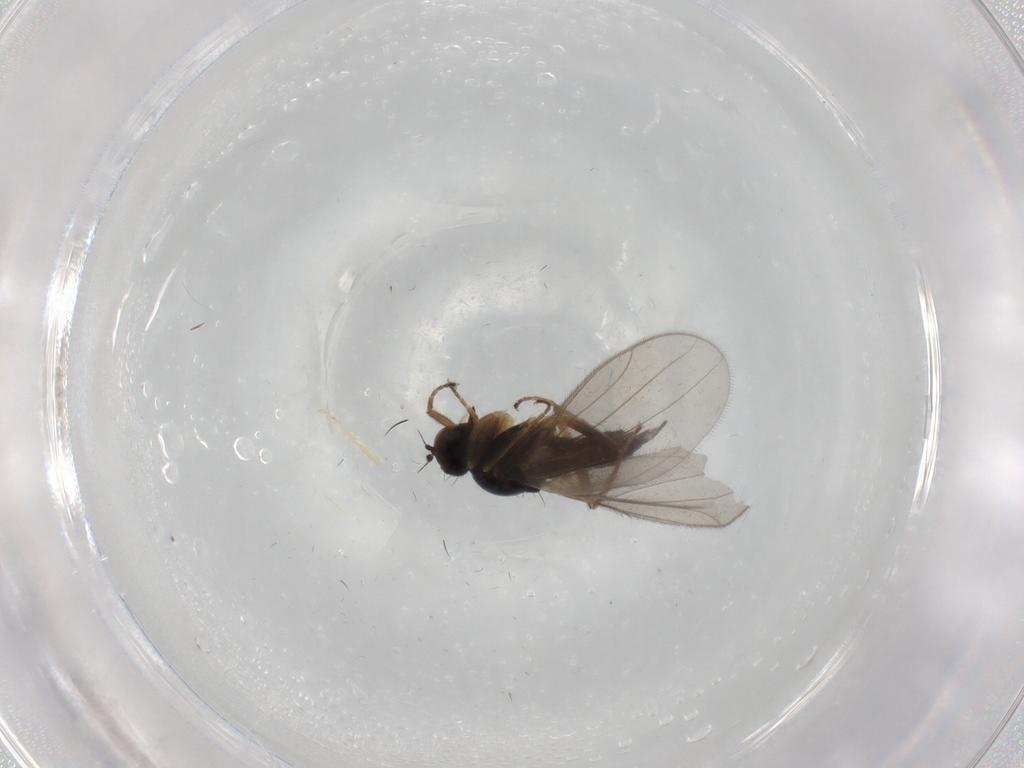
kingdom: Animalia
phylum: Arthropoda
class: Insecta
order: Diptera
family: Hybotidae
